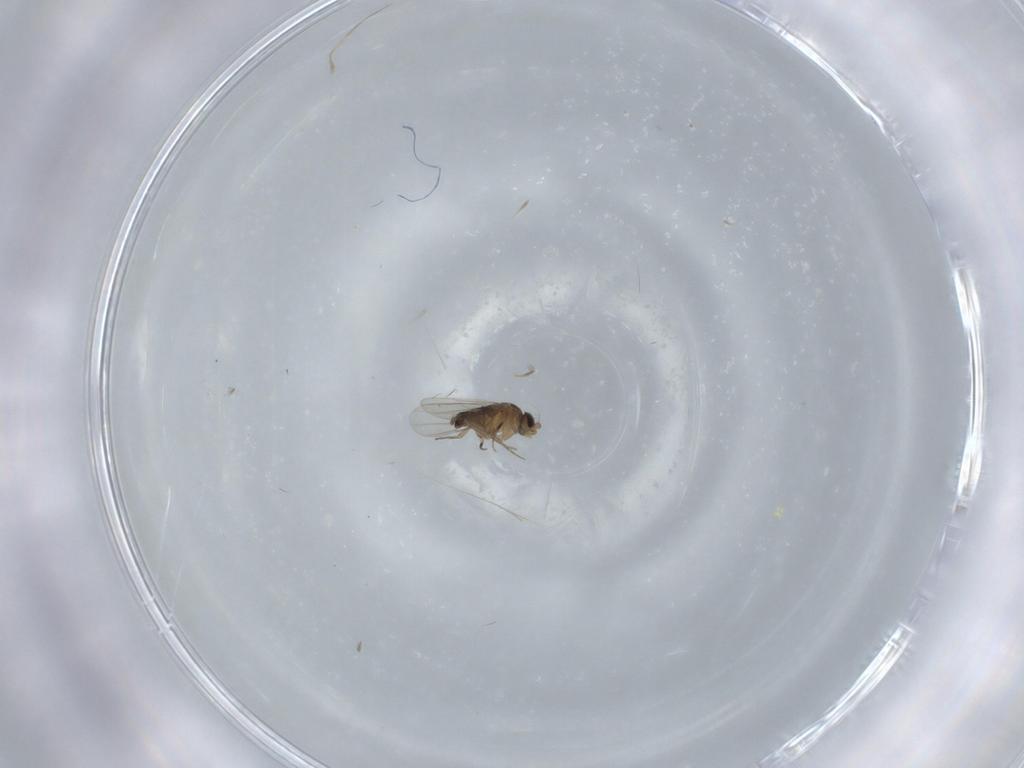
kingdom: Animalia
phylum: Arthropoda
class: Insecta
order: Diptera
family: Phoridae
